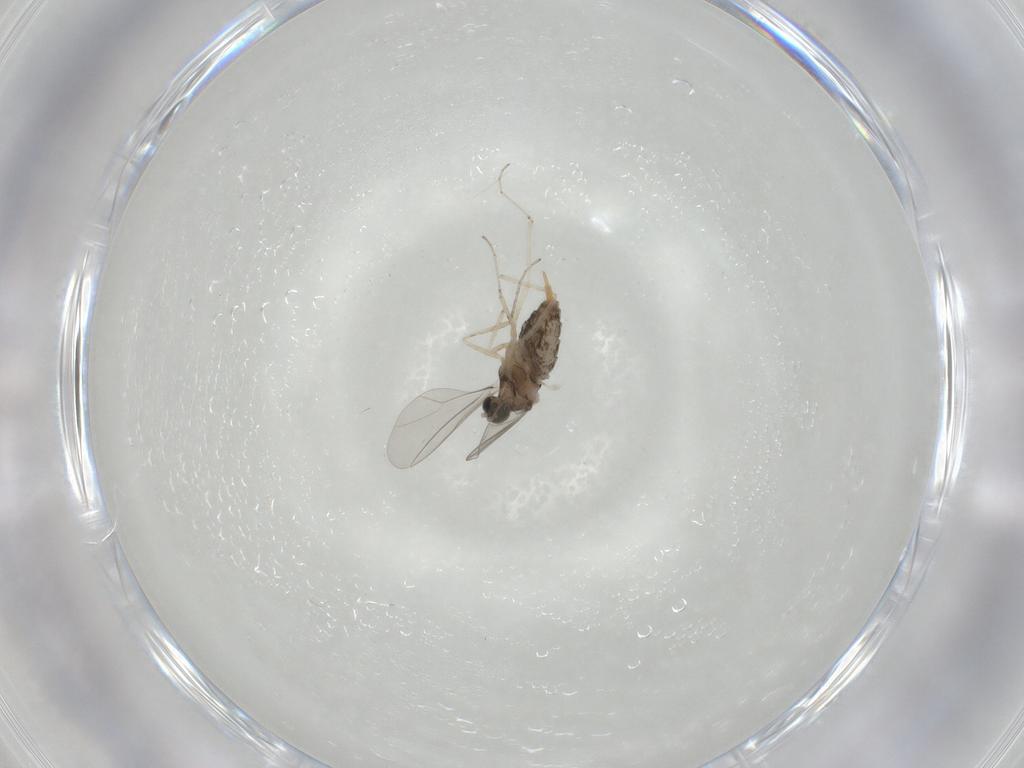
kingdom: Animalia
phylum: Arthropoda
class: Insecta
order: Diptera
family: Cecidomyiidae
